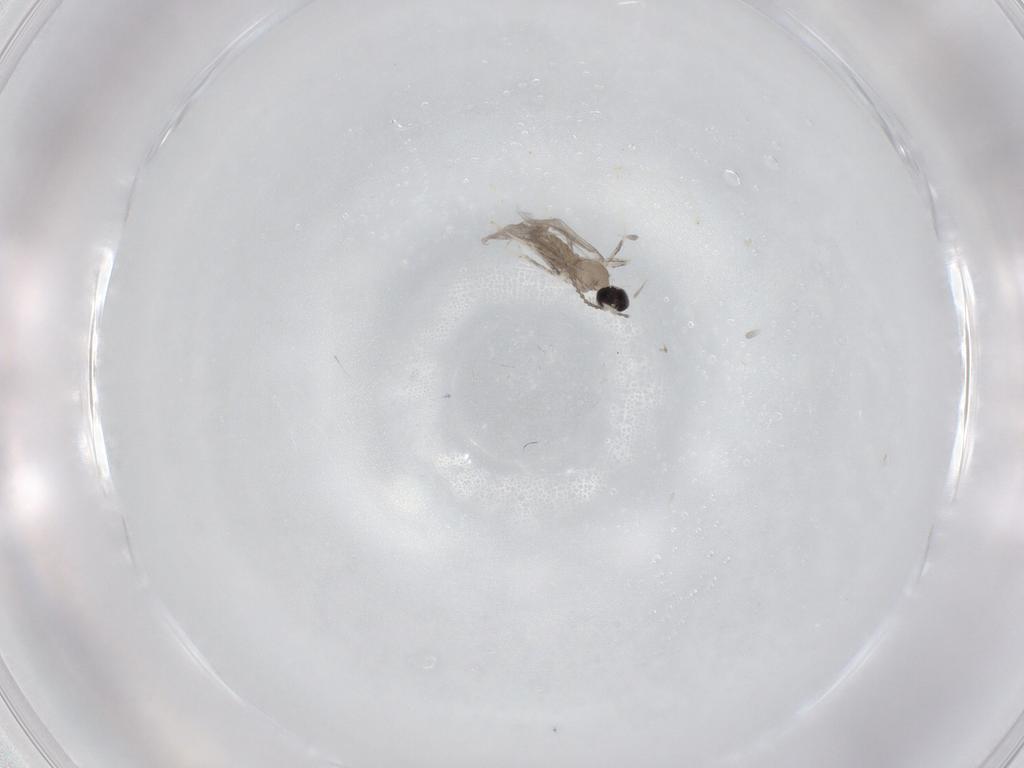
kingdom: Animalia
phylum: Arthropoda
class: Insecta
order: Diptera
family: Cecidomyiidae
